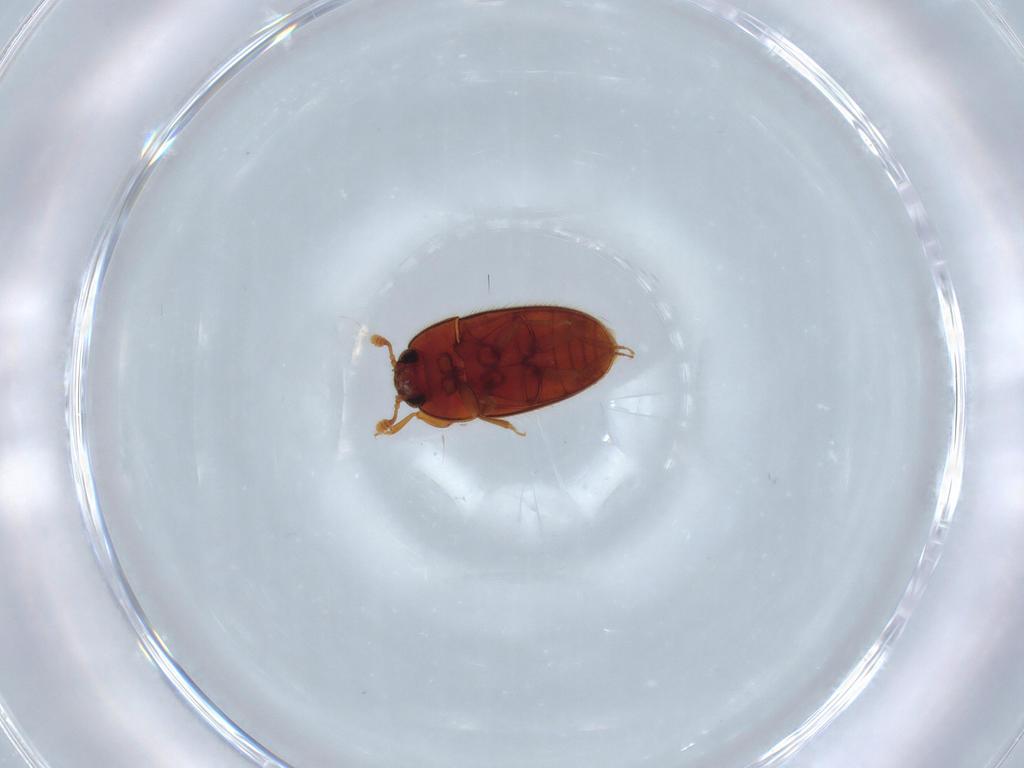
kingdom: Animalia
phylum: Arthropoda
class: Insecta
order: Coleoptera
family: Biphyllidae
